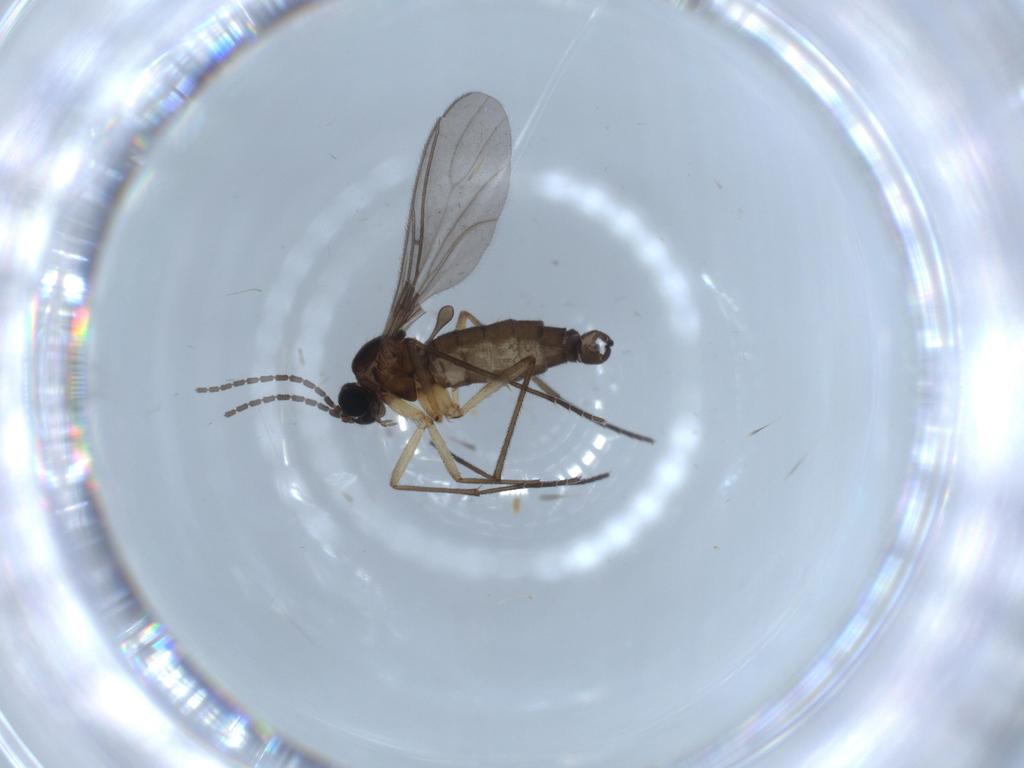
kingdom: Animalia
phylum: Arthropoda
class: Insecta
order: Diptera
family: Sciaridae
